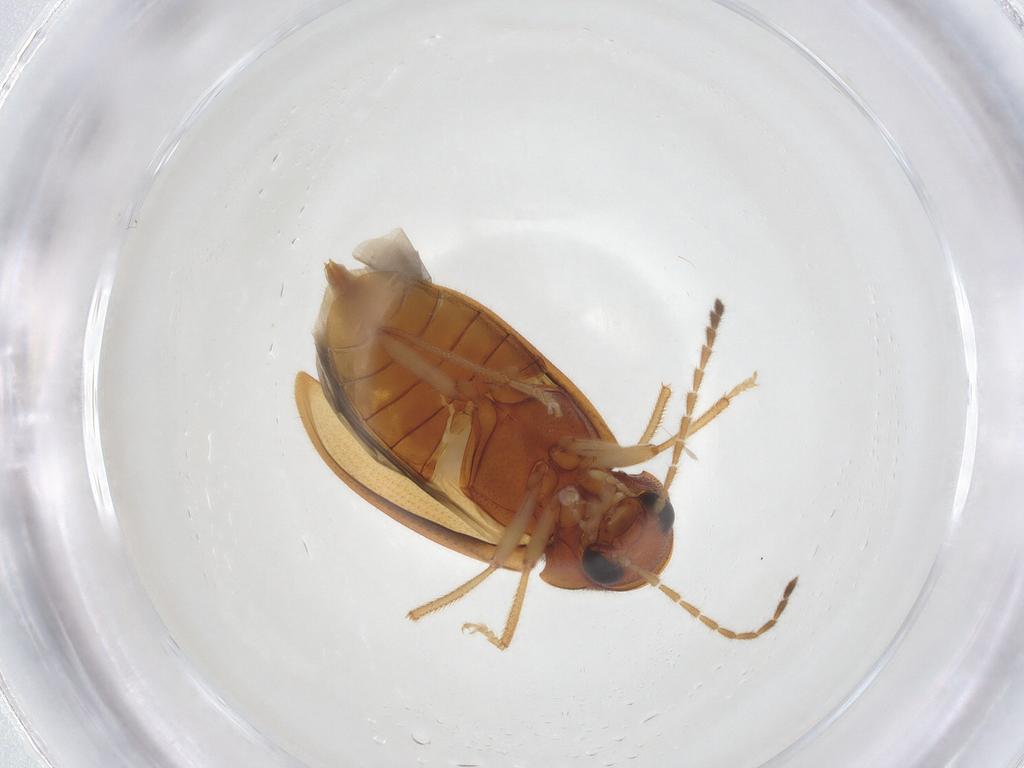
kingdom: Animalia
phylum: Arthropoda
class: Insecta
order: Coleoptera
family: Ptilodactylidae
